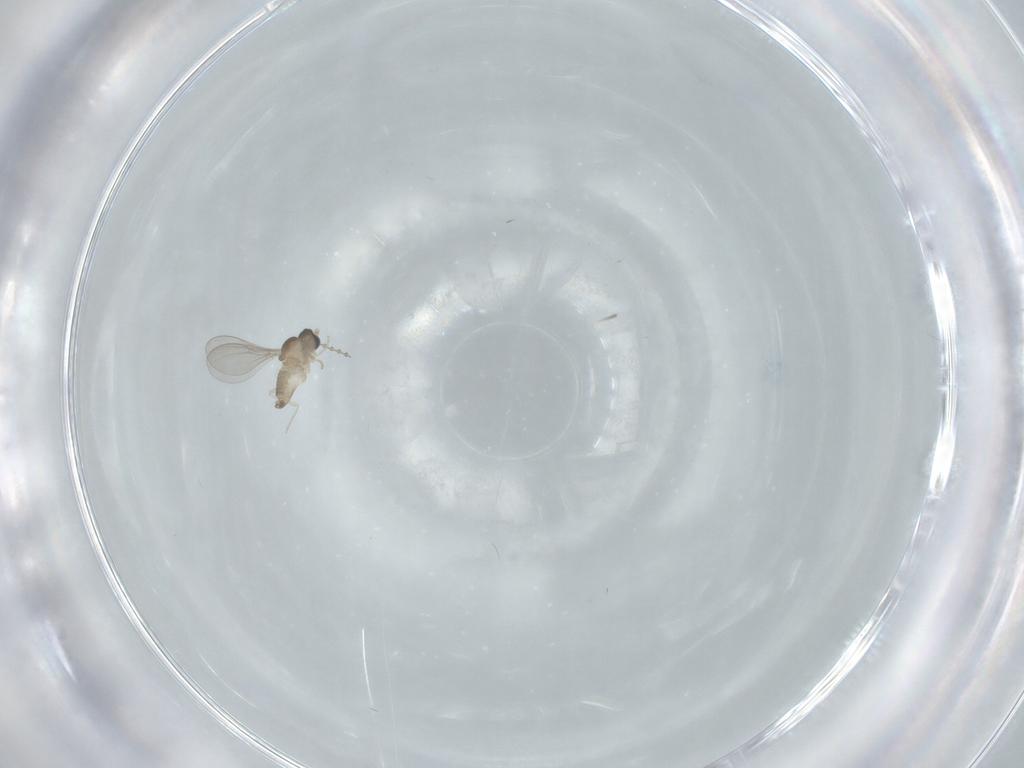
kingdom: Animalia
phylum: Arthropoda
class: Insecta
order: Diptera
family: Cecidomyiidae
